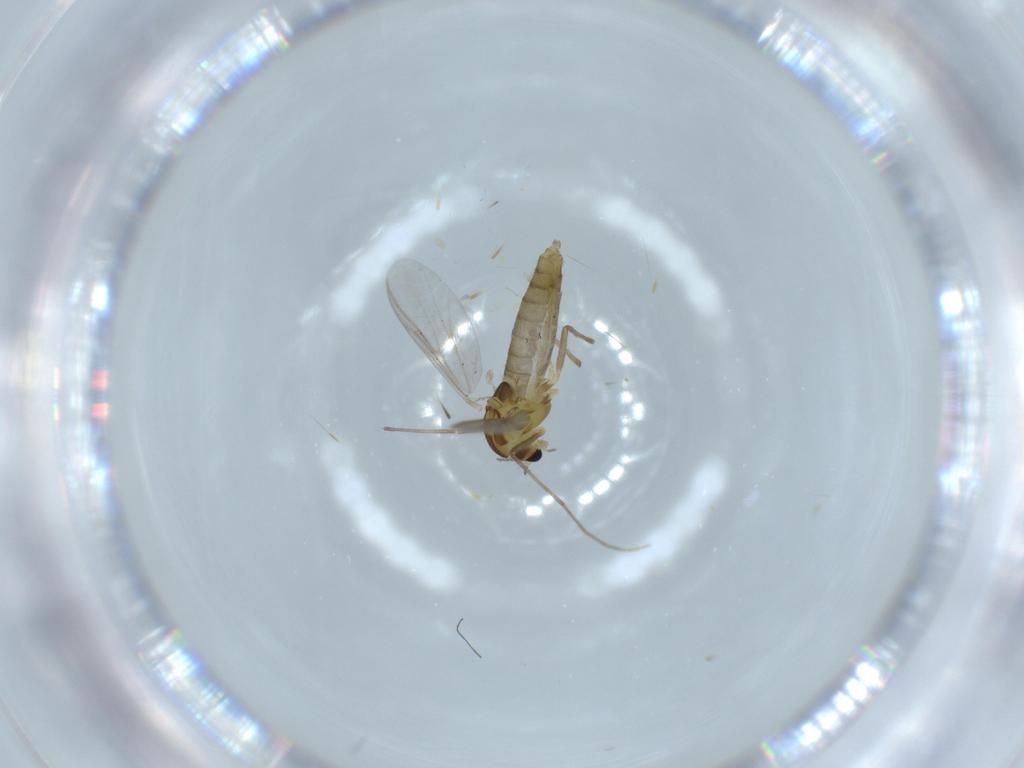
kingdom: Animalia
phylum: Arthropoda
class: Insecta
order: Diptera
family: Chironomidae
